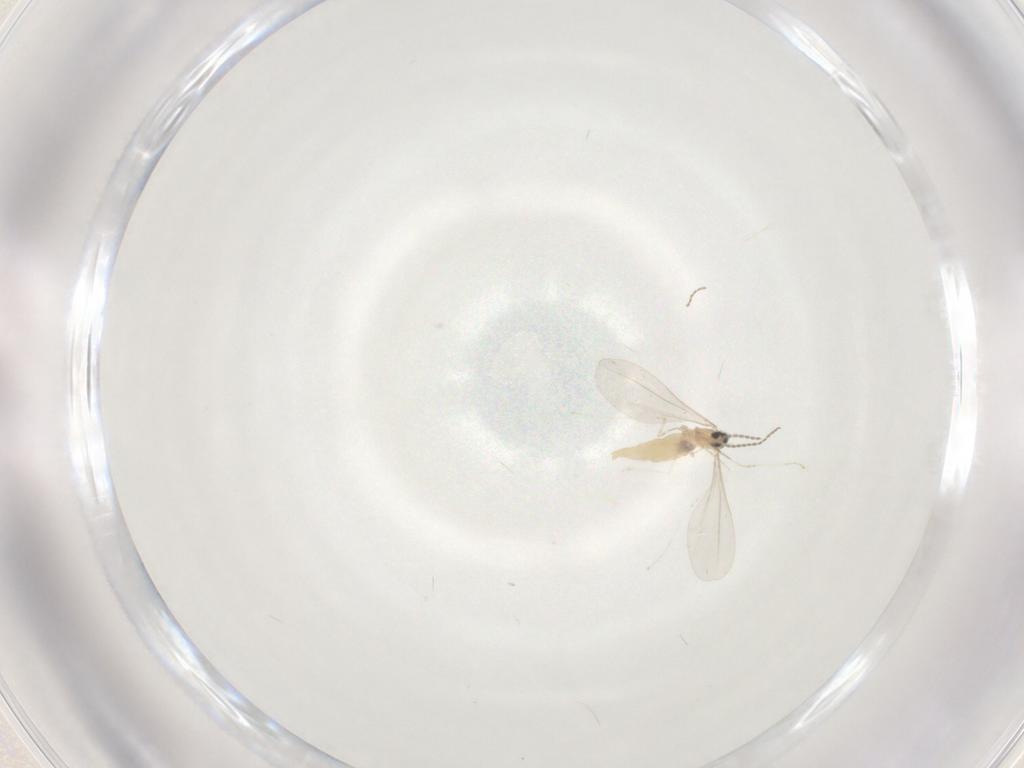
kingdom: Animalia
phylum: Arthropoda
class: Insecta
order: Diptera
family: Cecidomyiidae
